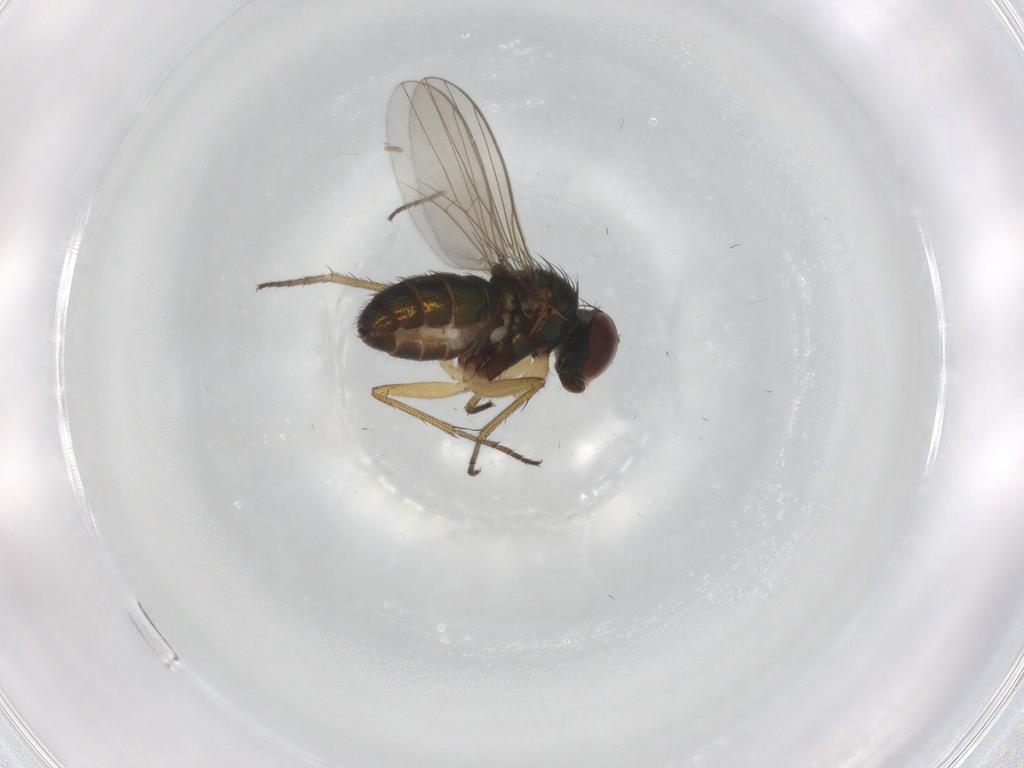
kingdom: Animalia
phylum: Arthropoda
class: Insecta
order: Diptera
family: Sciaridae
